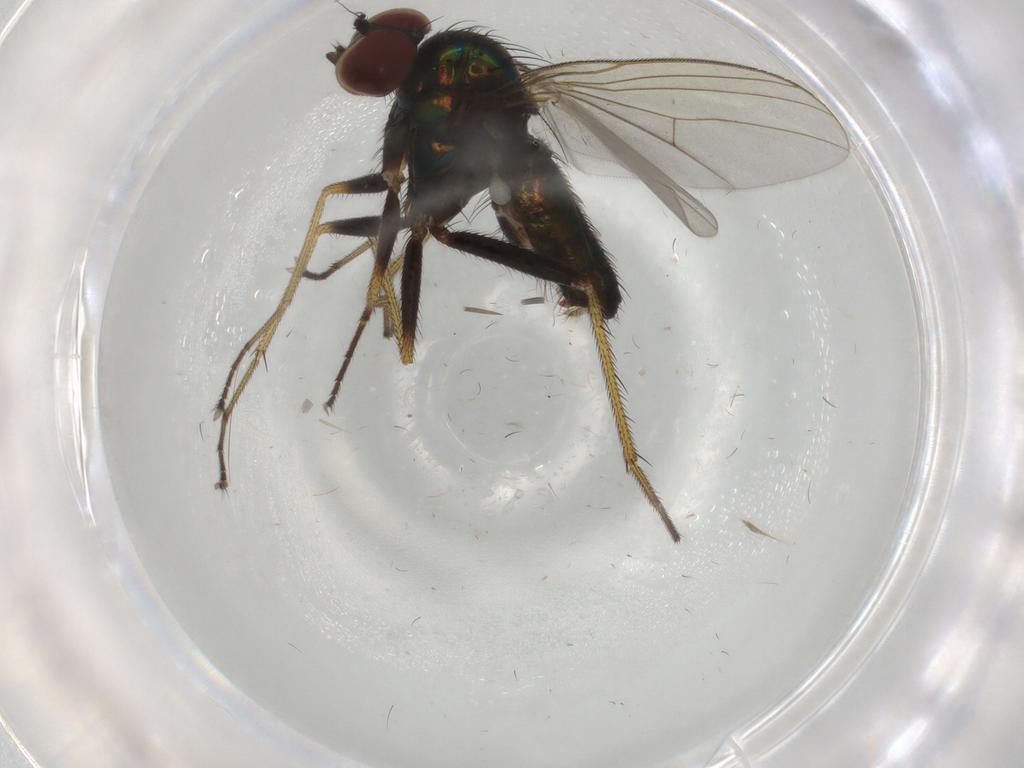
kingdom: Animalia
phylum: Arthropoda
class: Insecta
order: Diptera
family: Dolichopodidae
